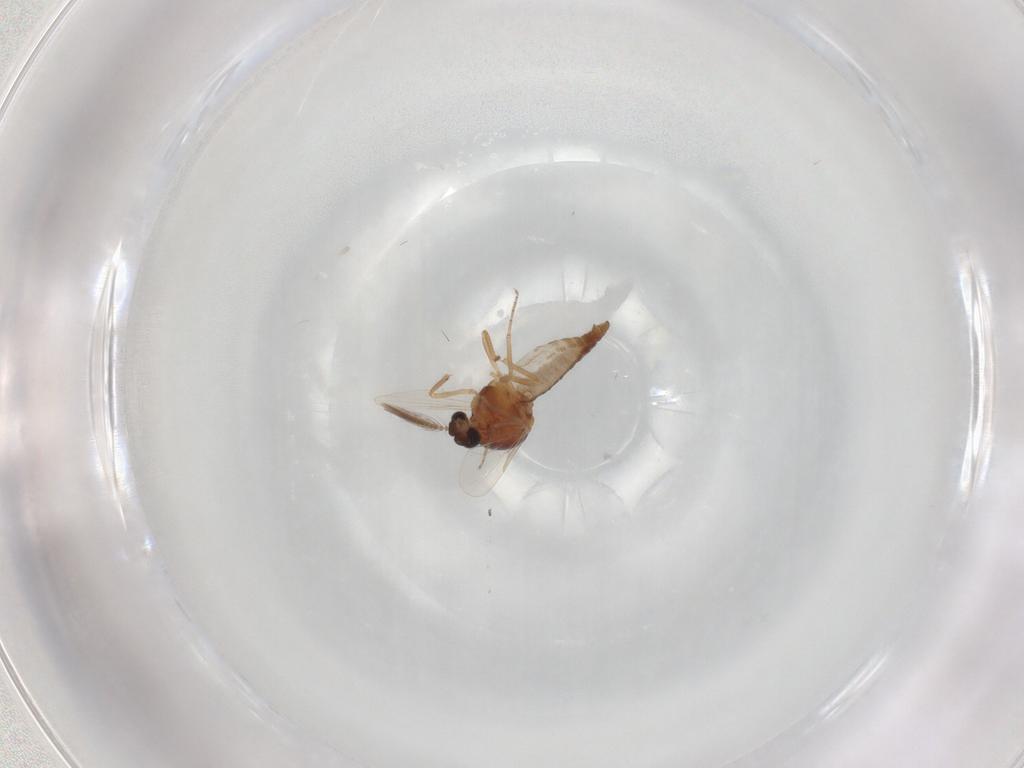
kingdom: Animalia
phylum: Arthropoda
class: Insecta
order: Diptera
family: Ceratopogonidae
